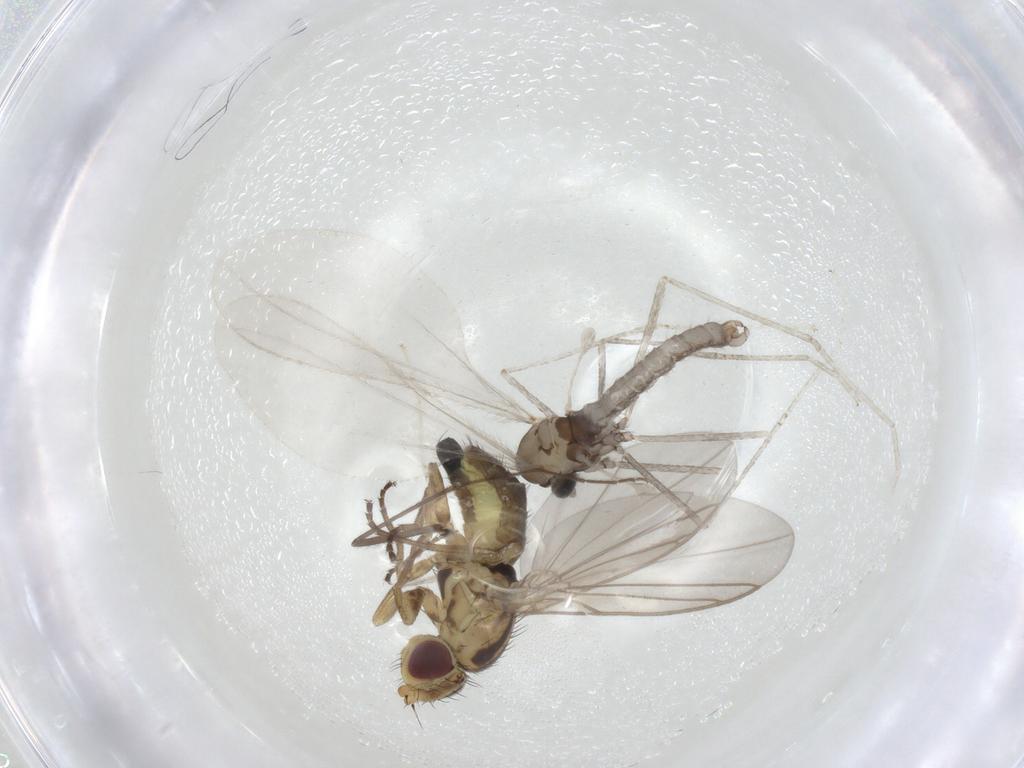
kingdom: Animalia
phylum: Arthropoda
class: Insecta
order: Diptera
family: Cecidomyiidae
